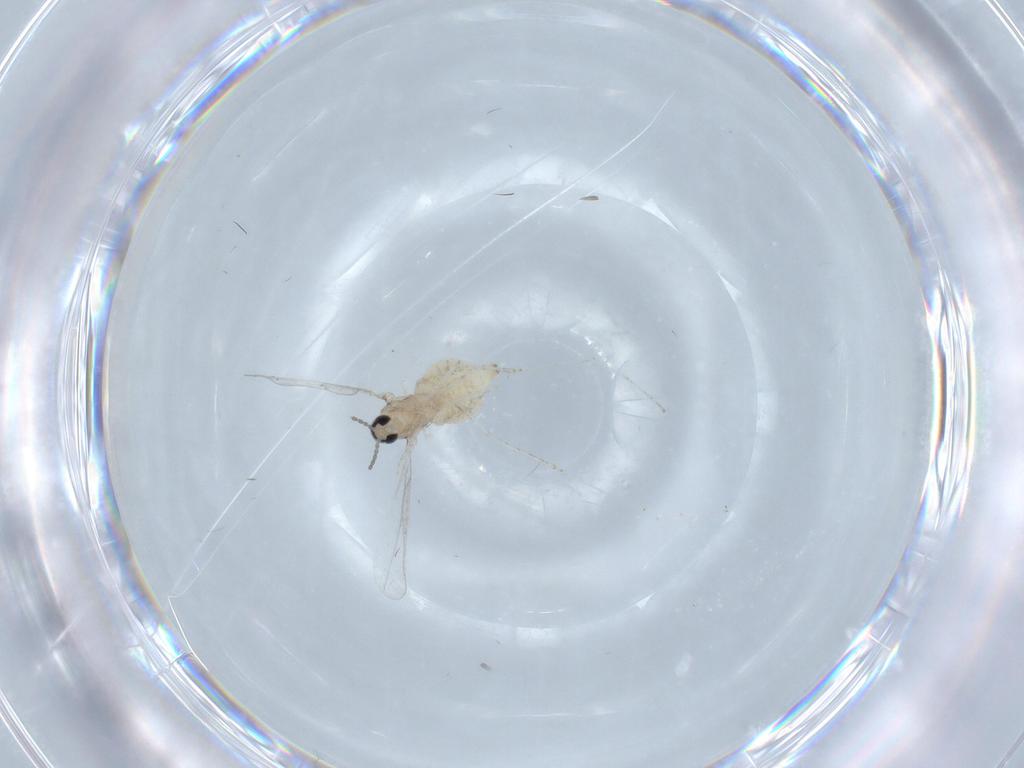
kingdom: Animalia
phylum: Arthropoda
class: Insecta
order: Diptera
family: Cecidomyiidae
